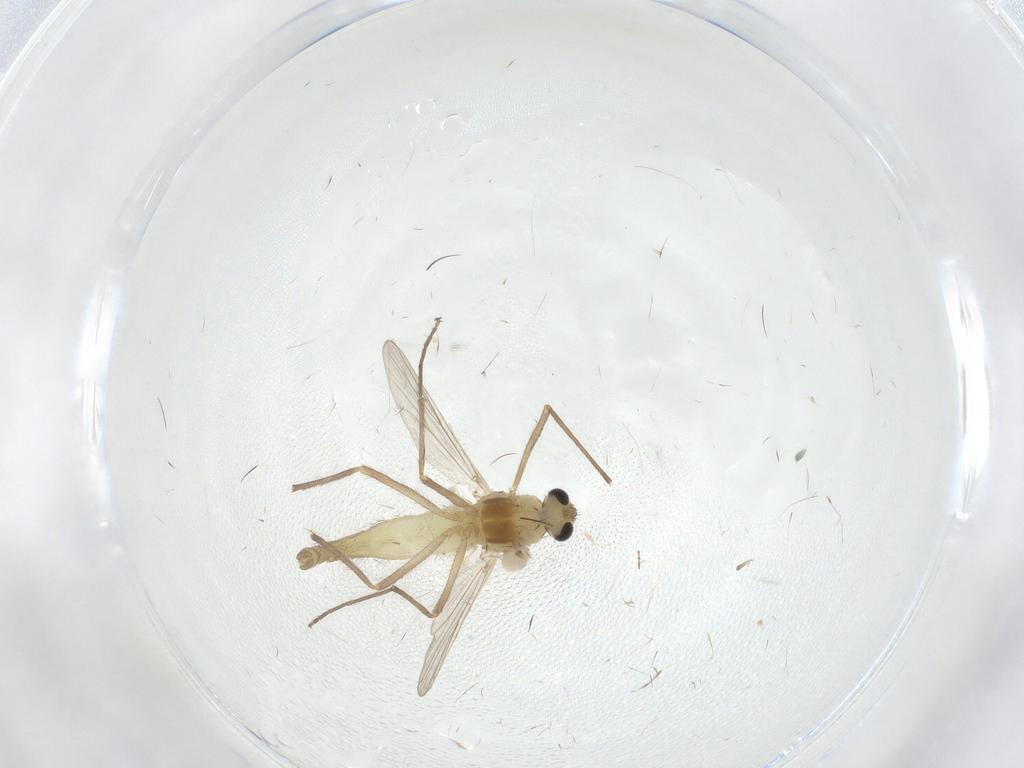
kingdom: Animalia
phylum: Arthropoda
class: Insecta
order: Diptera
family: Chironomidae
